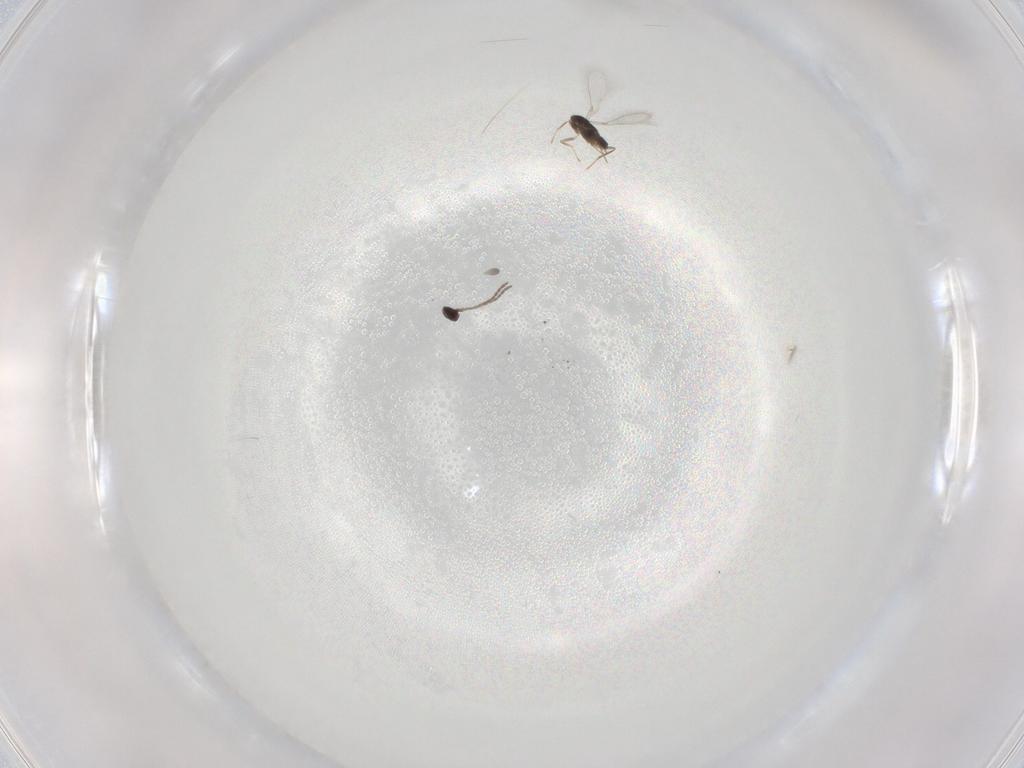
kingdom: Animalia
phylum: Arthropoda
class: Insecta
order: Hymenoptera
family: Mymaridae
